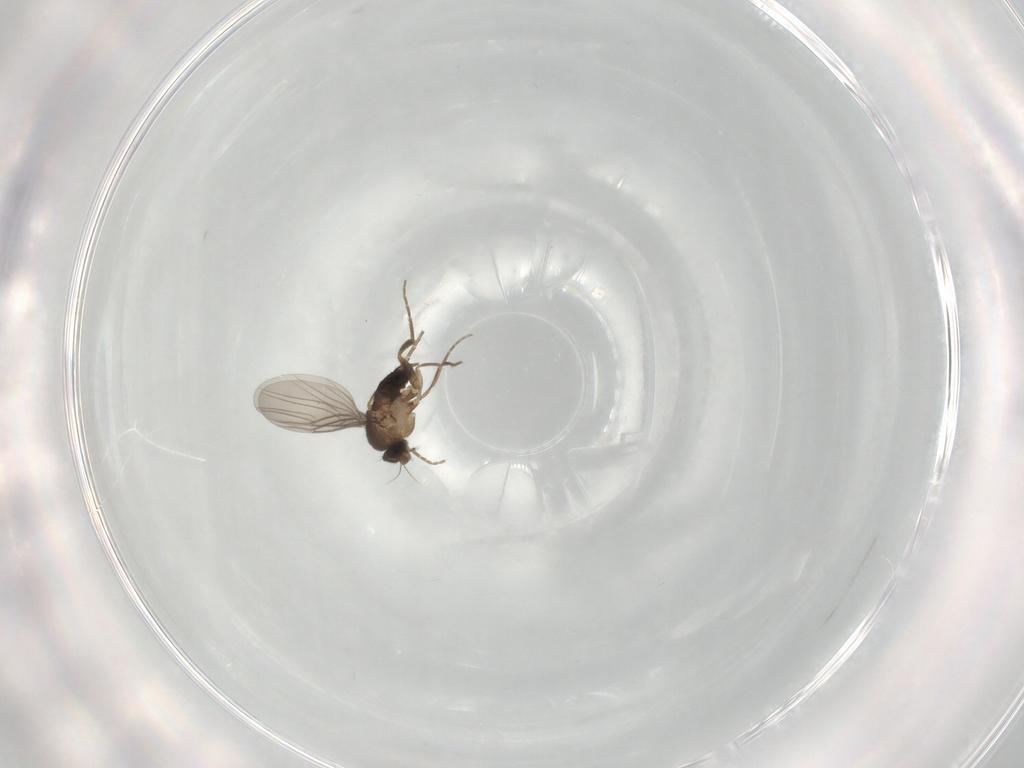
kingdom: Animalia
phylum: Arthropoda
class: Insecta
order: Diptera
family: Phoridae
